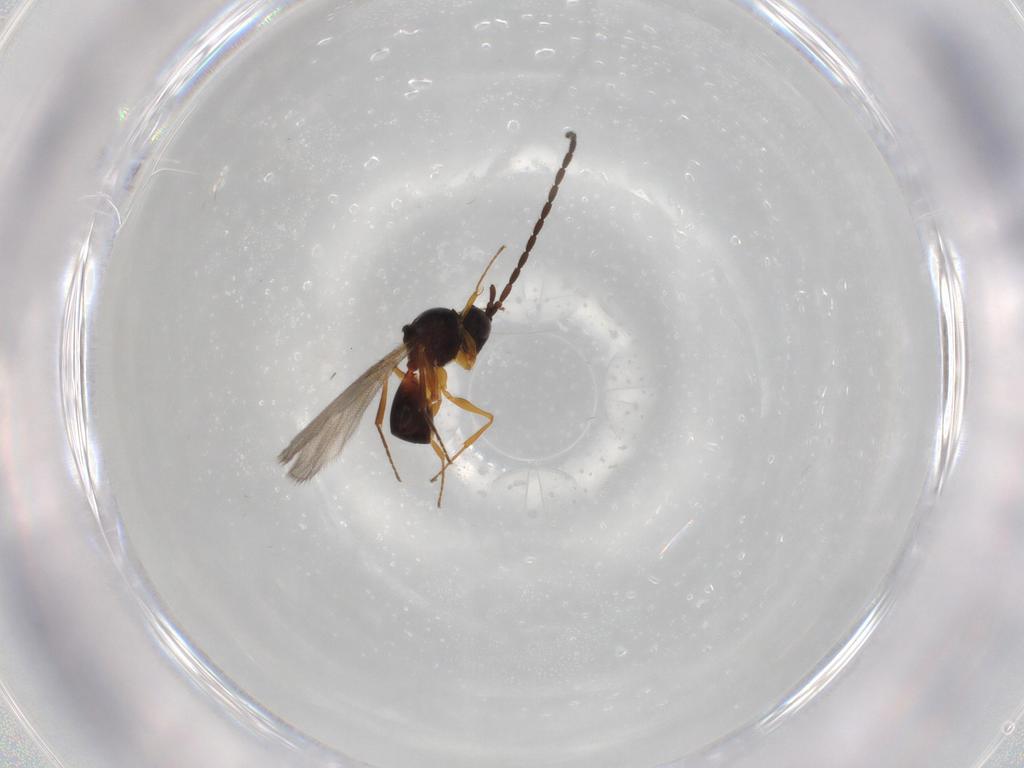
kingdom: Animalia
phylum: Arthropoda
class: Insecta
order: Hymenoptera
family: Figitidae
